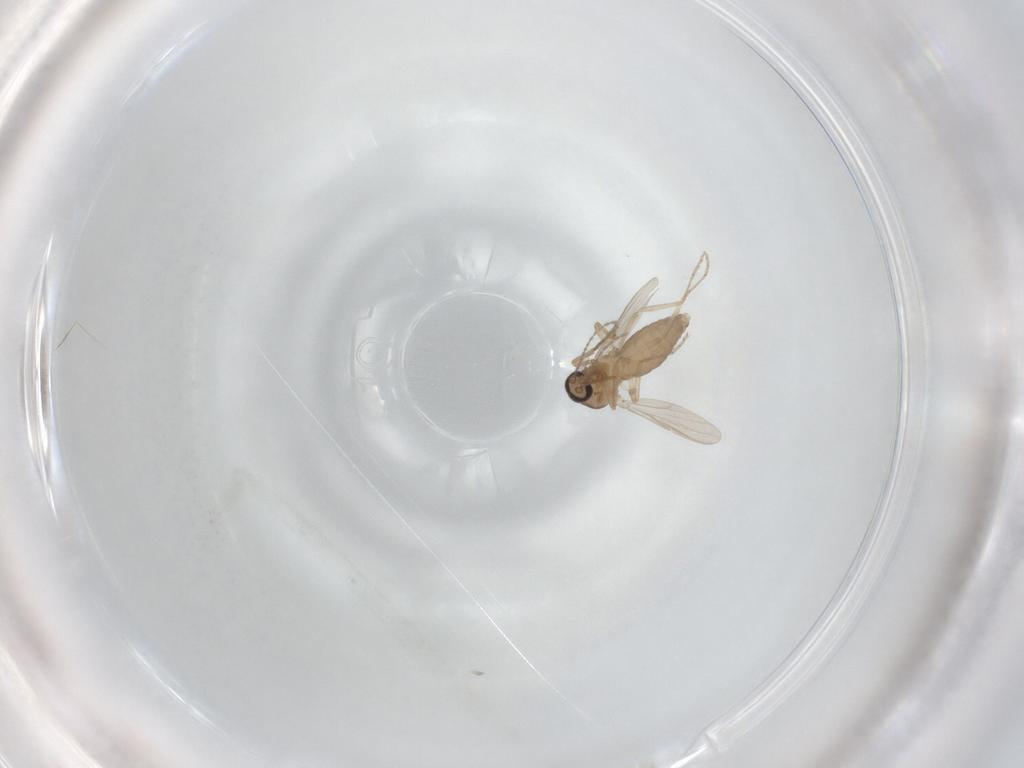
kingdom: Animalia
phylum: Arthropoda
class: Insecta
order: Diptera
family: Ceratopogonidae
